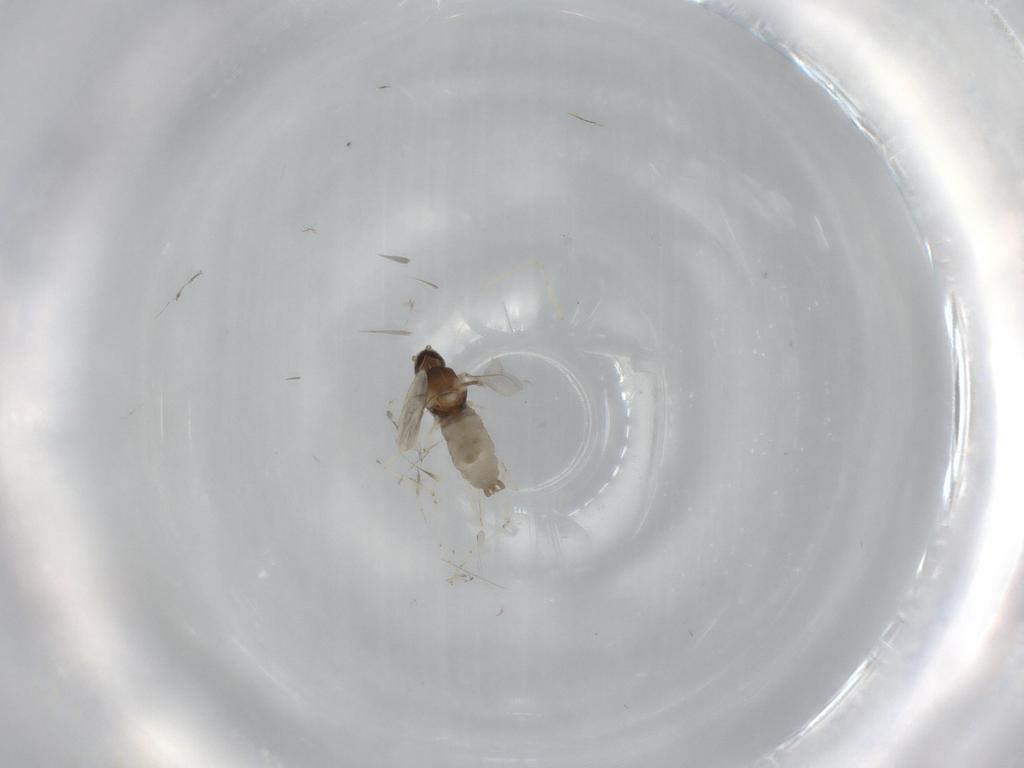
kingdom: Animalia
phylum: Arthropoda
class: Insecta
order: Diptera
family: Cecidomyiidae
